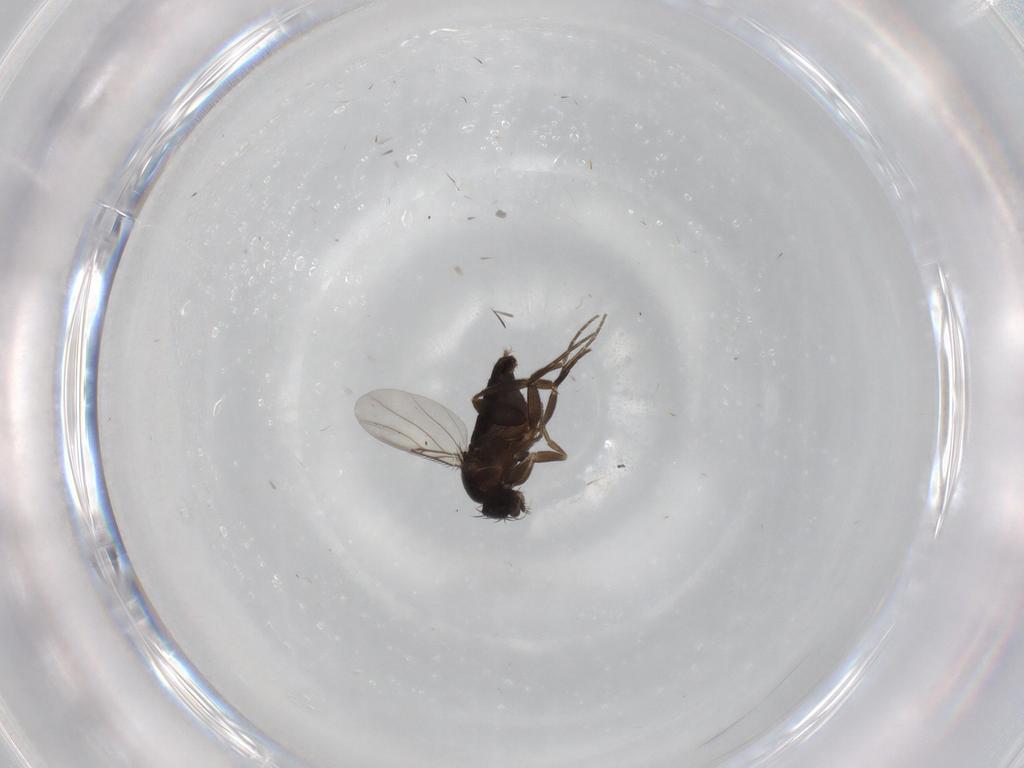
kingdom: Animalia
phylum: Arthropoda
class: Insecta
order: Diptera
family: Phoridae
